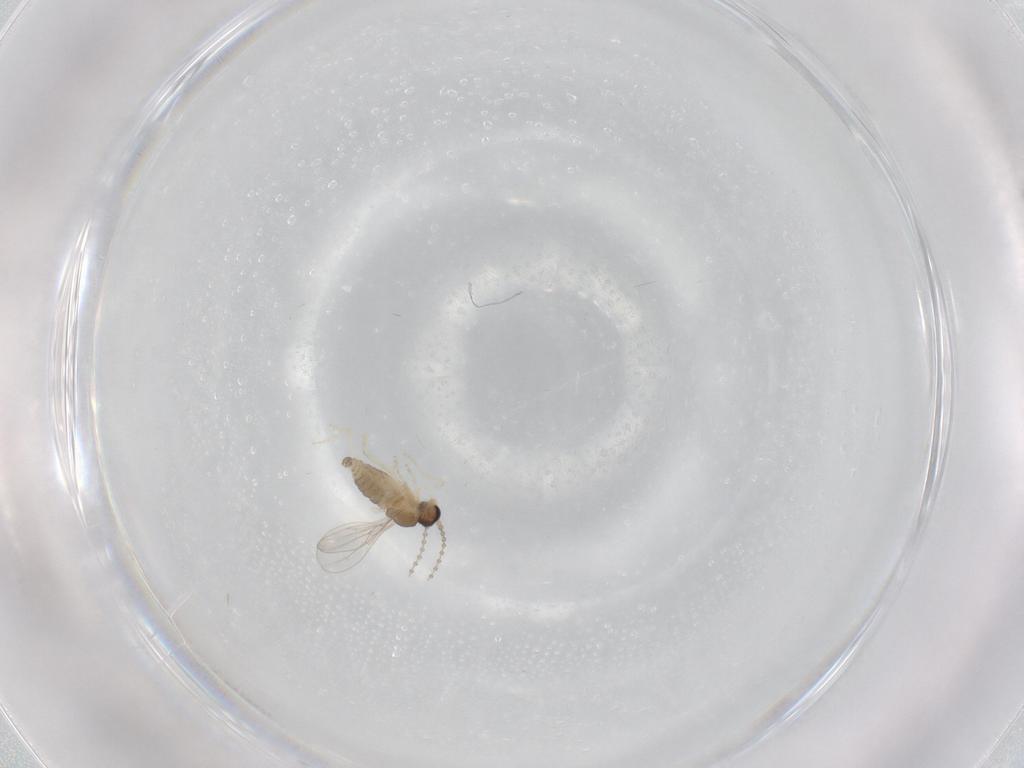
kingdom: Animalia
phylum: Arthropoda
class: Insecta
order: Diptera
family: Cecidomyiidae
